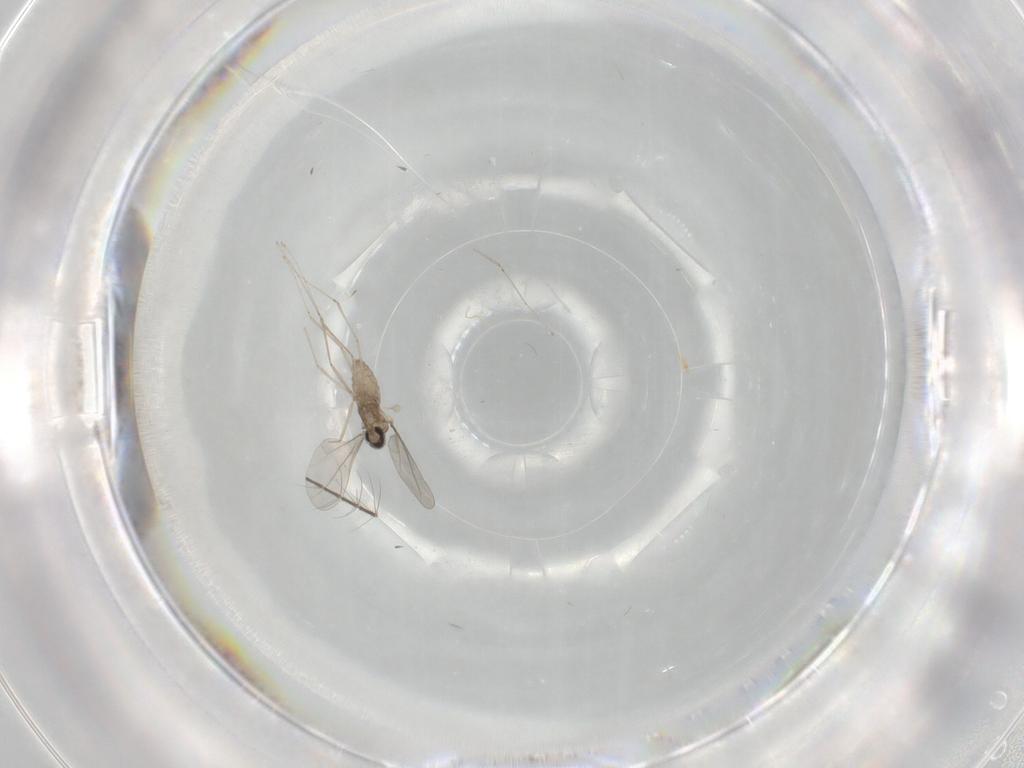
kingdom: Animalia
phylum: Arthropoda
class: Insecta
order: Diptera
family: Culicidae
